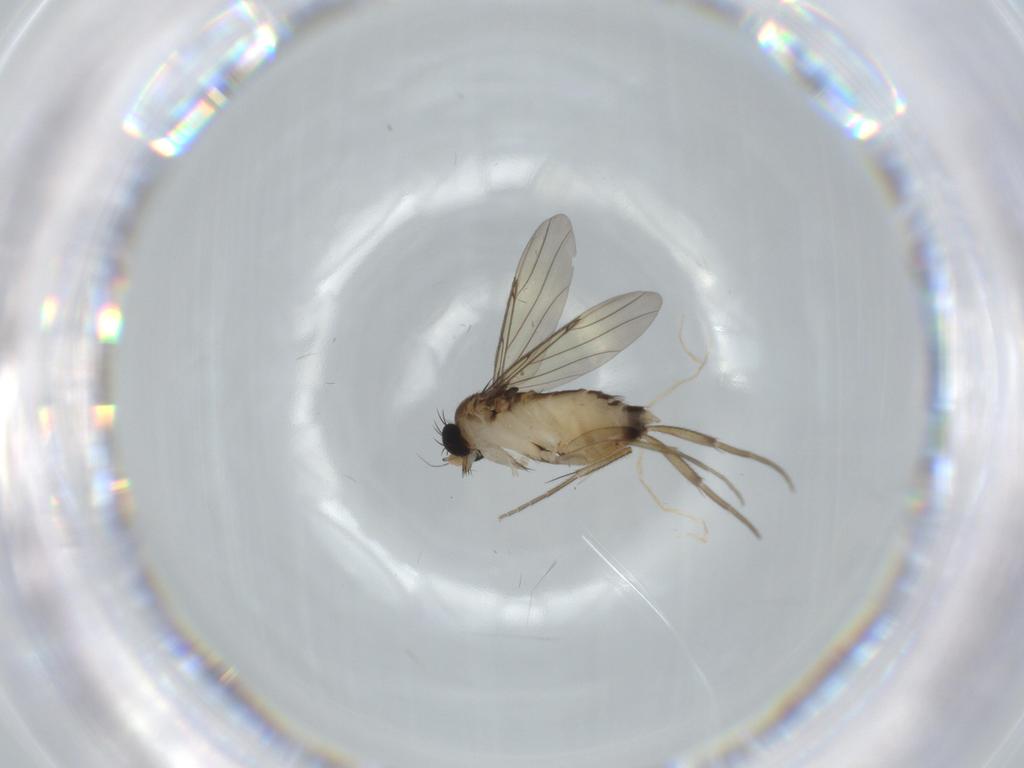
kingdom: Animalia
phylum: Arthropoda
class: Insecta
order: Diptera
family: Phoridae
